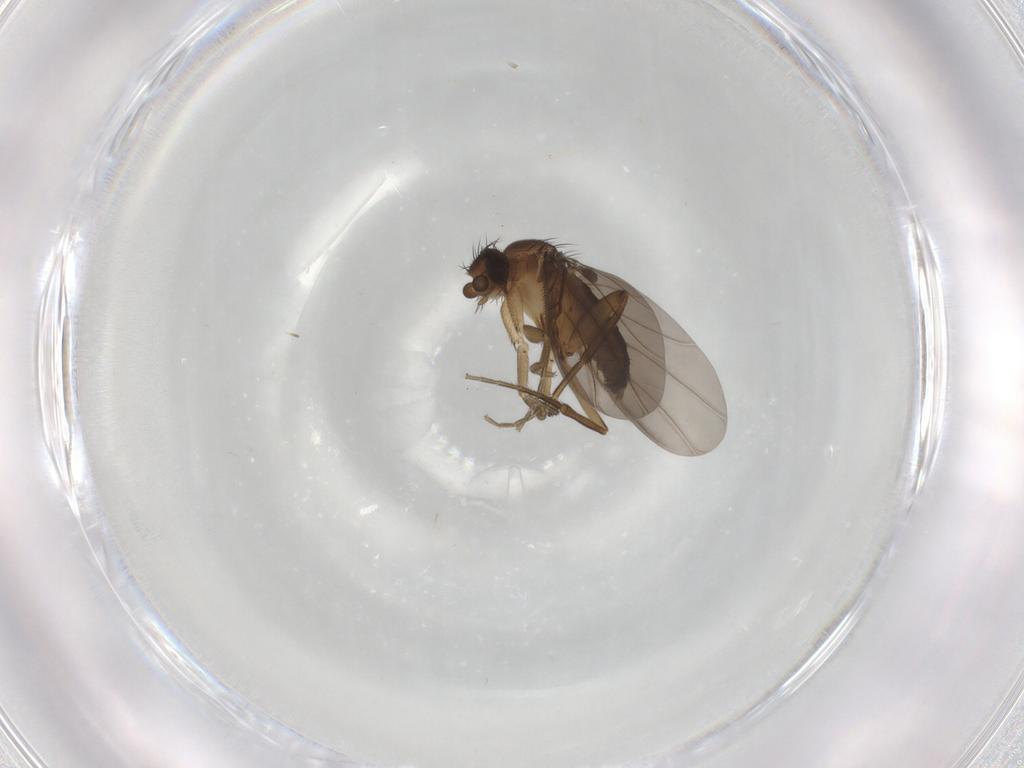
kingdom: Animalia
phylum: Arthropoda
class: Insecta
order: Diptera
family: Phoridae
